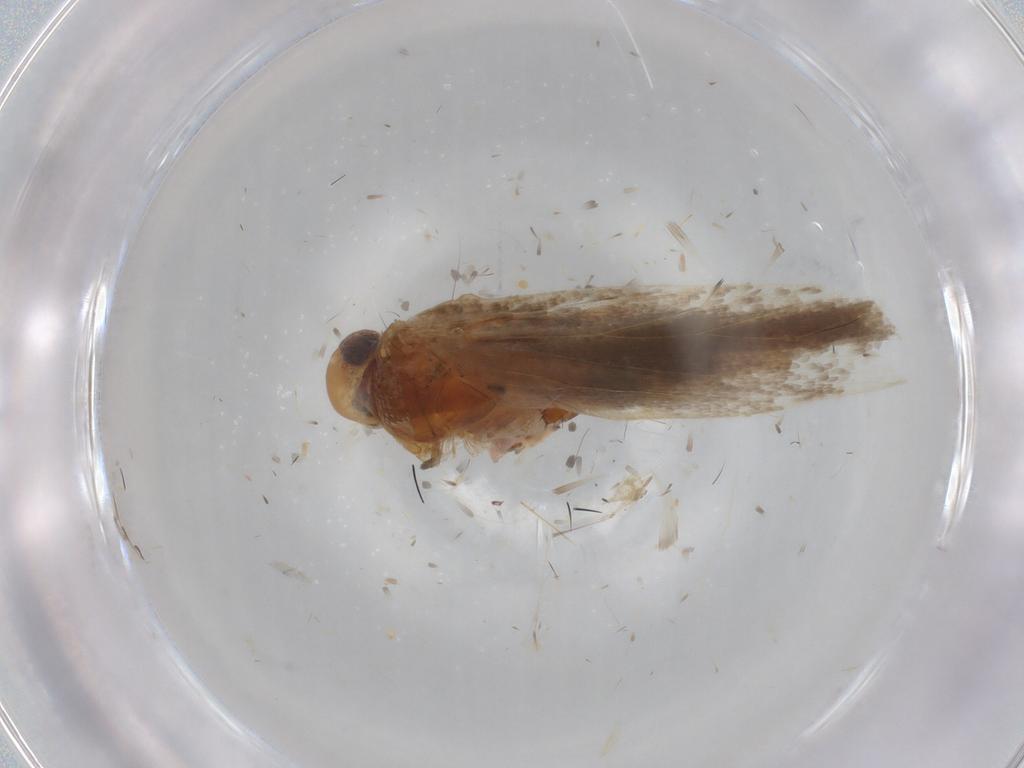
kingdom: Animalia
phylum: Arthropoda
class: Insecta
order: Lepidoptera
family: Gelechiidae
